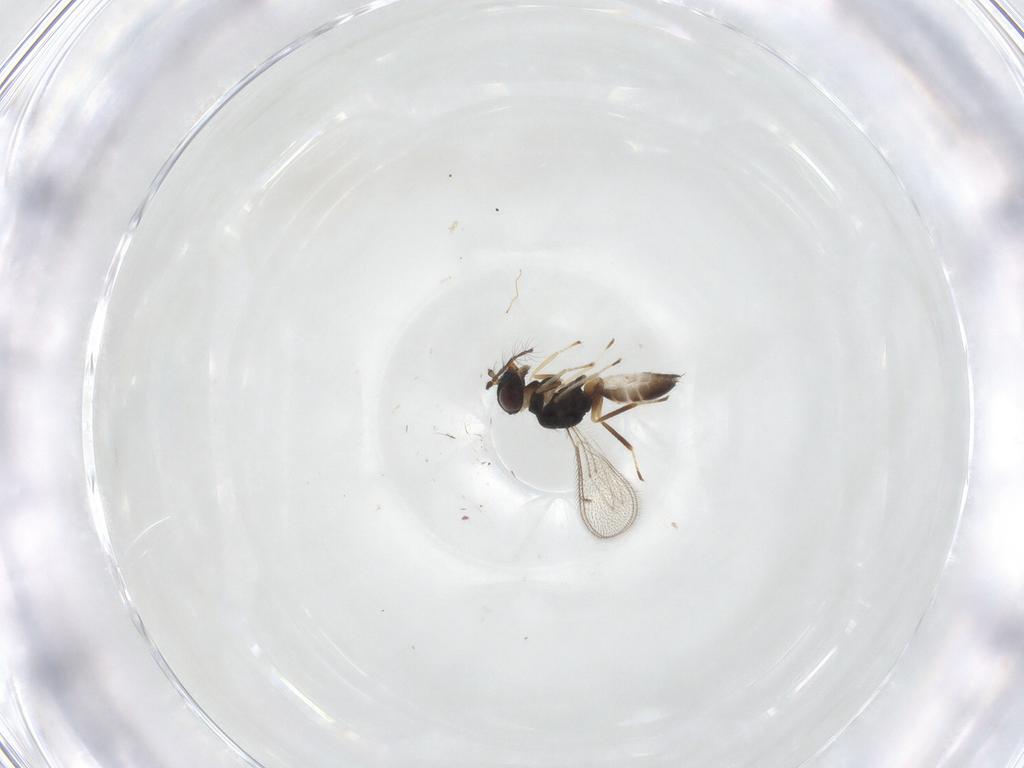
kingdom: Animalia
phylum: Arthropoda
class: Insecta
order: Hymenoptera
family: Eulophidae
